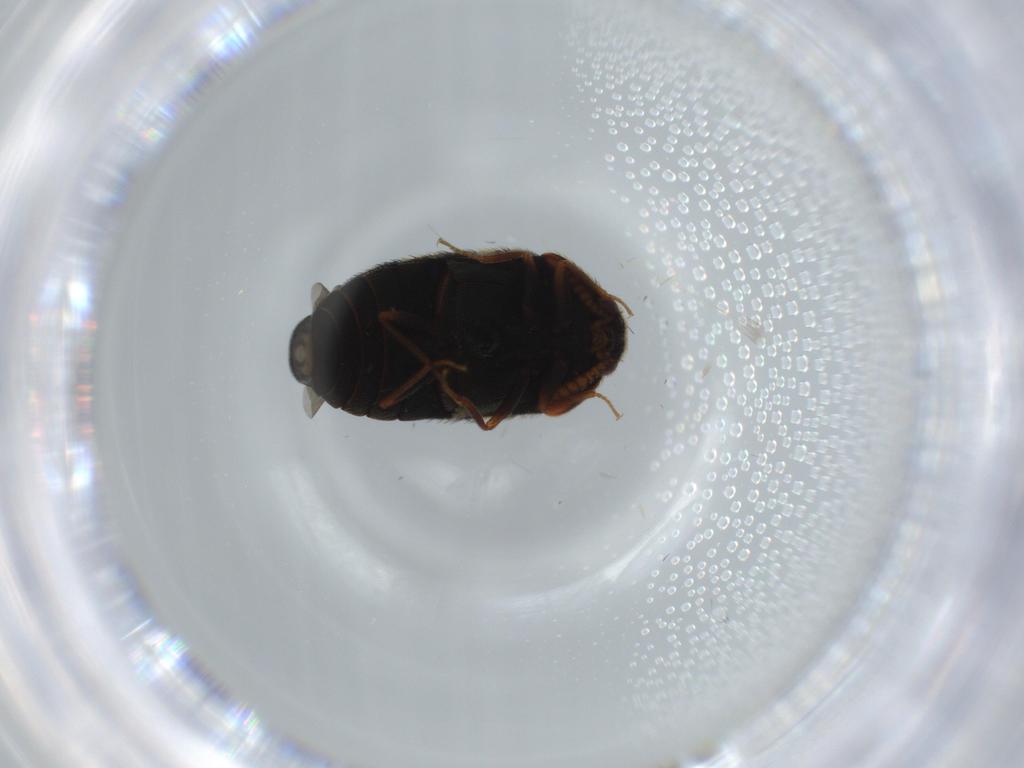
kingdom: Animalia
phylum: Arthropoda
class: Insecta
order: Coleoptera
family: Dermestidae
